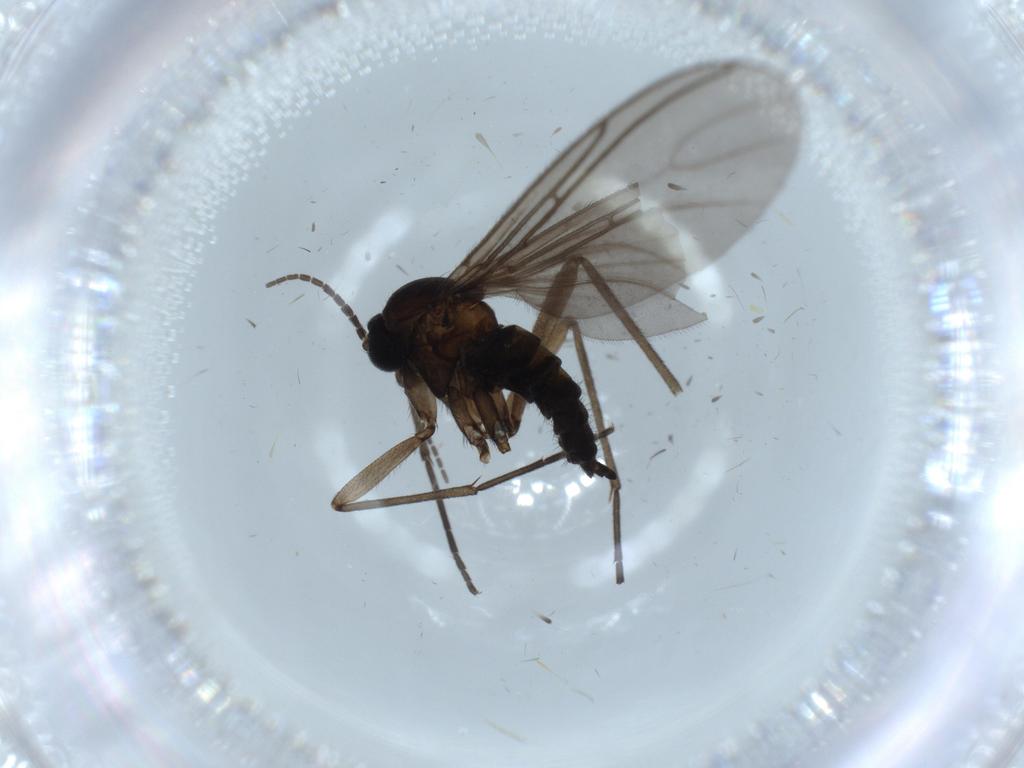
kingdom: Animalia
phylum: Arthropoda
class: Insecta
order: Diptera
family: Sciaridae
